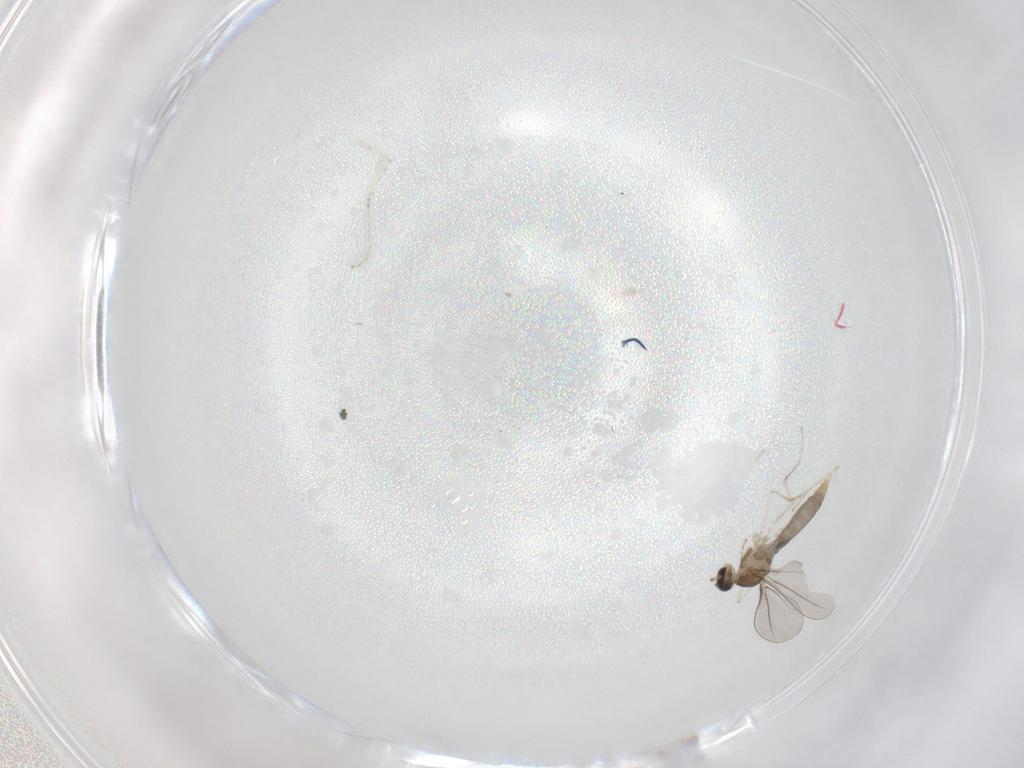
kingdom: Animalia
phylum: Arthropoda
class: Insecta
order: Diptera
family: Cecidomyiidae
